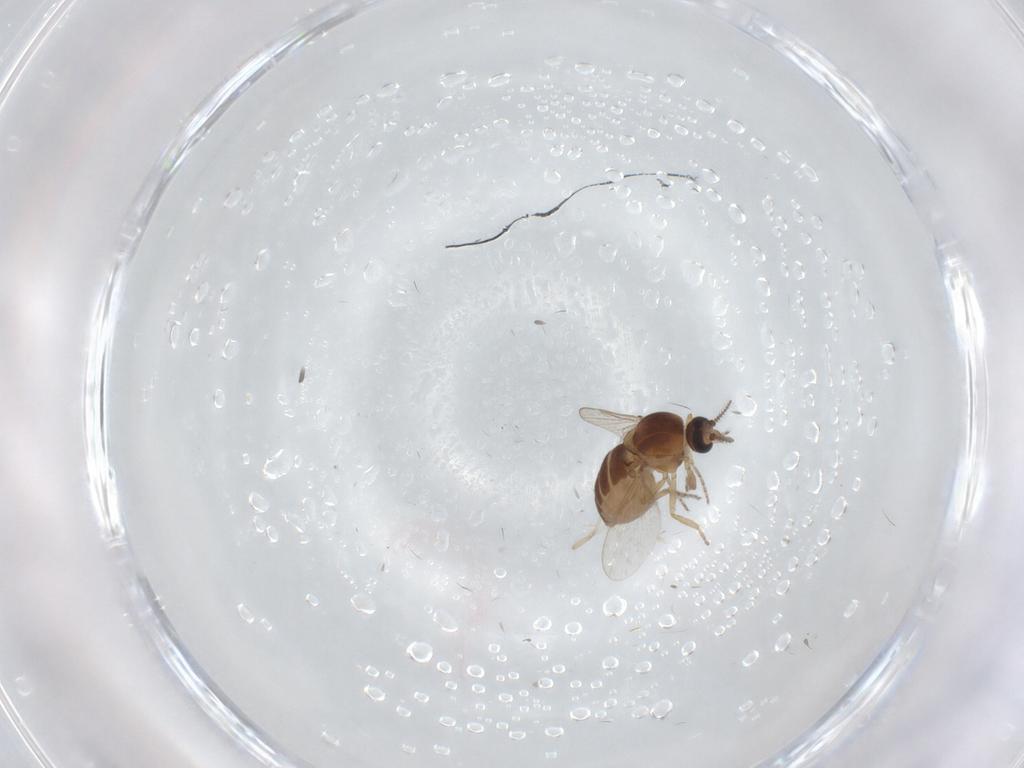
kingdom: Animalia
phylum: Arthropoda
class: Insecta
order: Diptera
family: Ceratopogonidae
